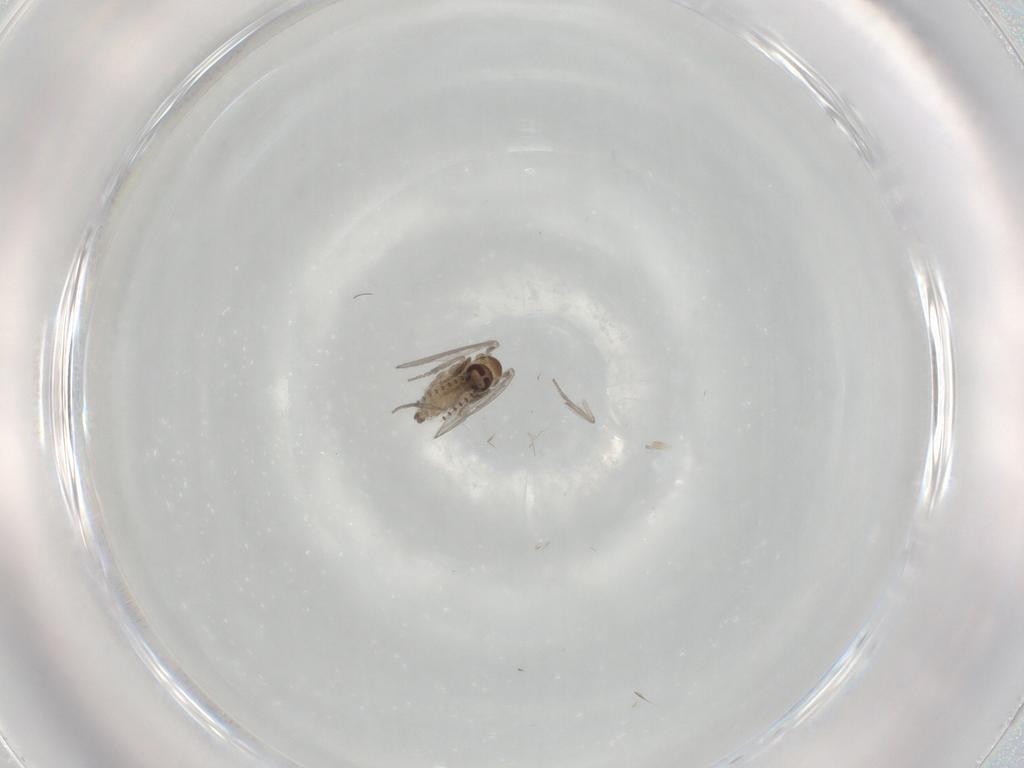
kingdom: Animalia
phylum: Arthropoda
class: Insecta
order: Diptera
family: Psychodidae
